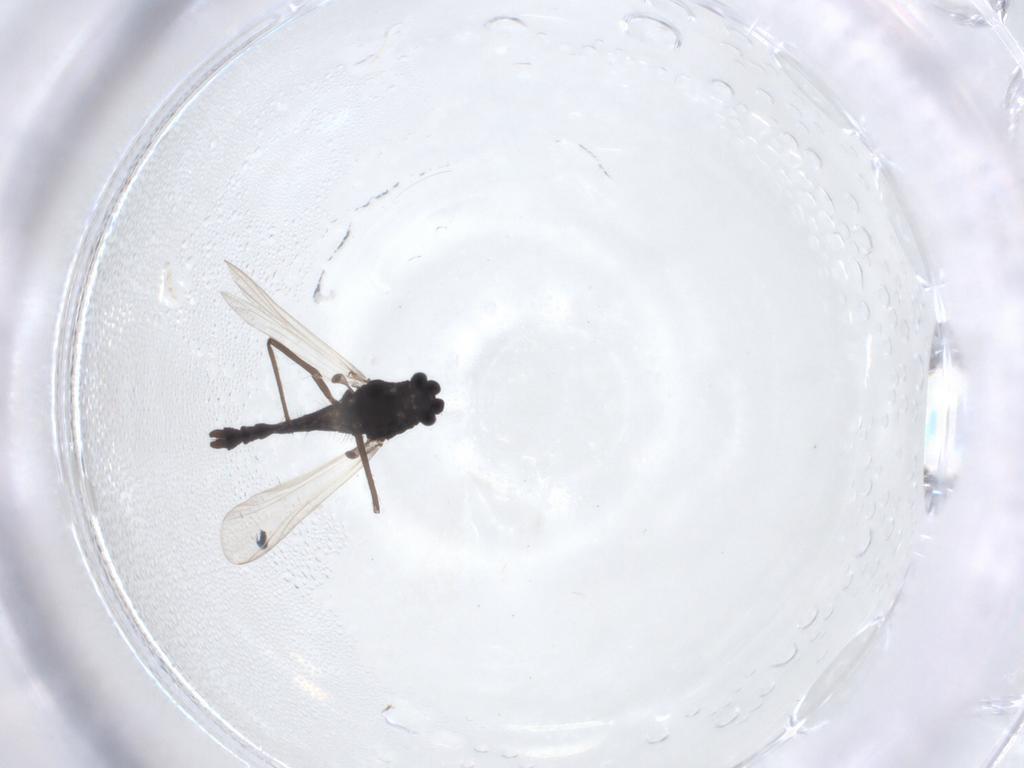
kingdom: Animalia
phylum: Arthropoda
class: Insecta
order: Diptera
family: Chironomidae
